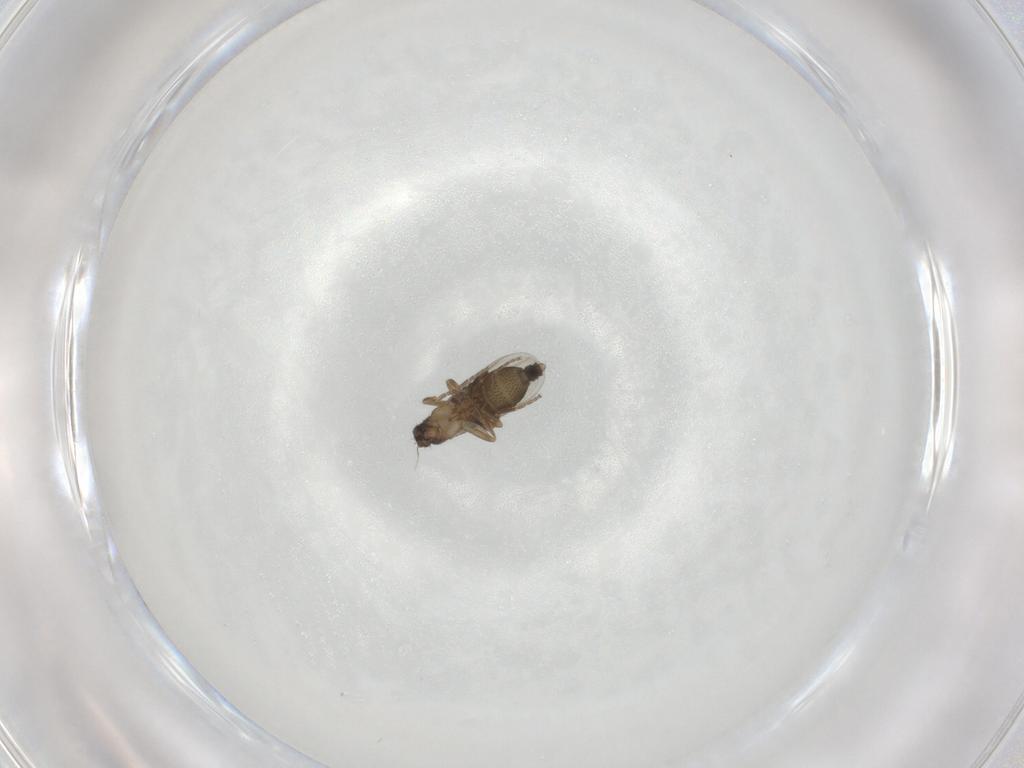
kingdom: Animalia
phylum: Arthropoda
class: Insecta
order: Diptera
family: Phoridae
